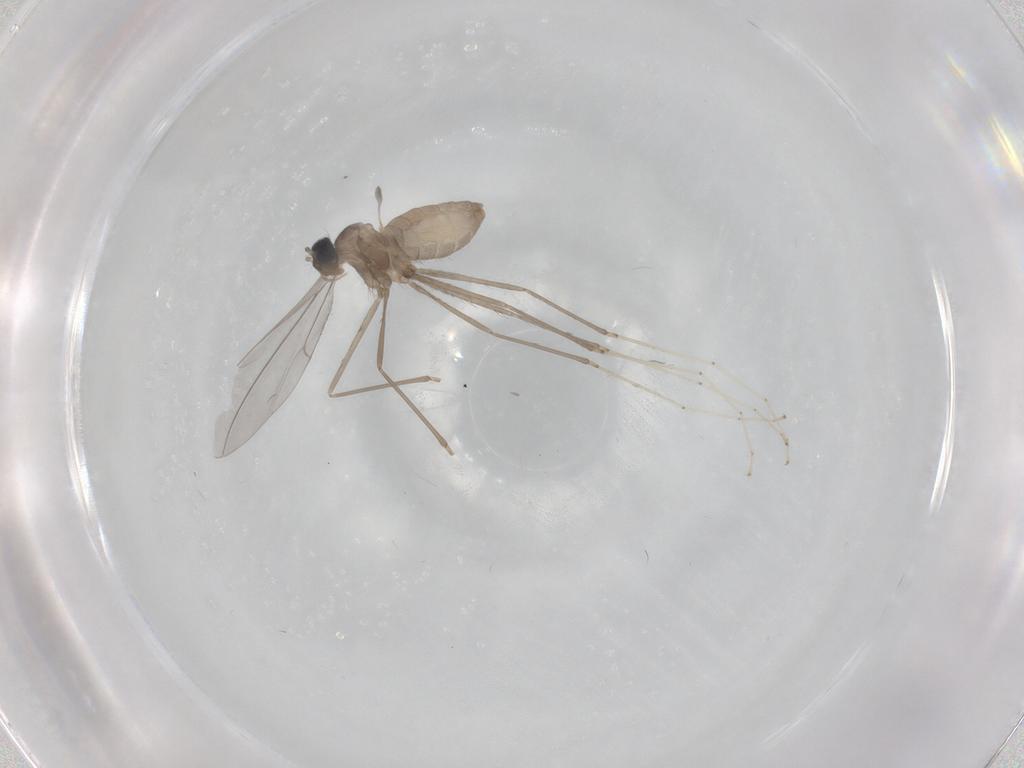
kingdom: Animalia
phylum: Arthropoda
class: Insecta
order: Diptera
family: Cecidomyiidae
